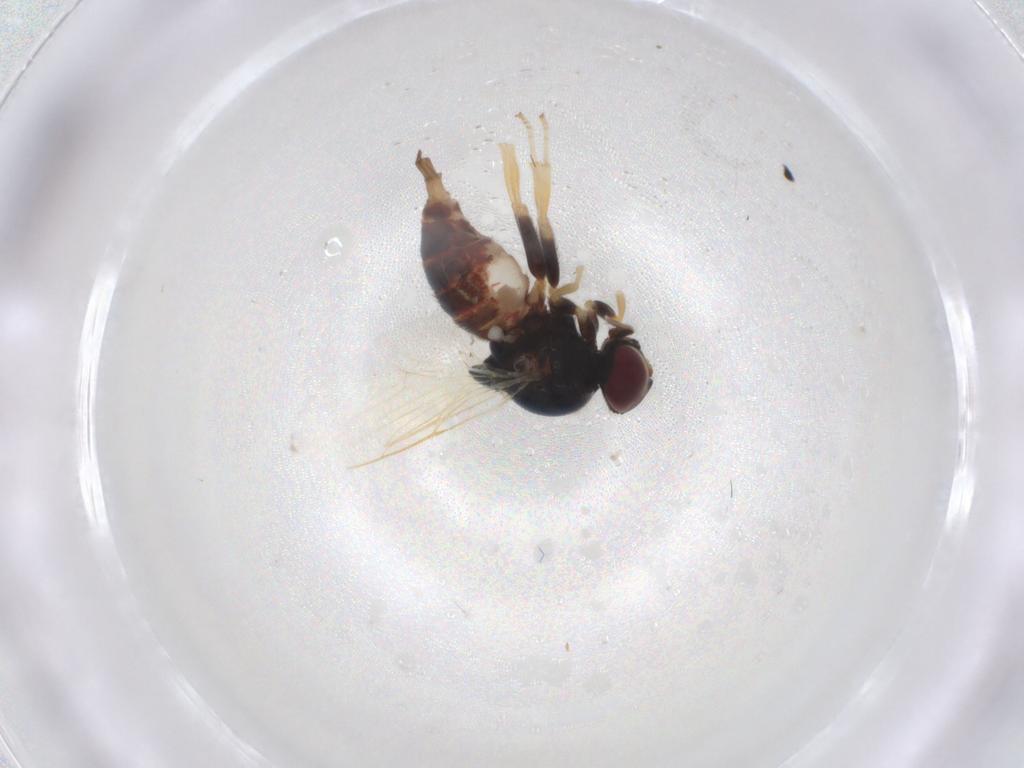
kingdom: Animalia
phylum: Arthropoda
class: Insecta
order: Diptera
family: Chloropidae
